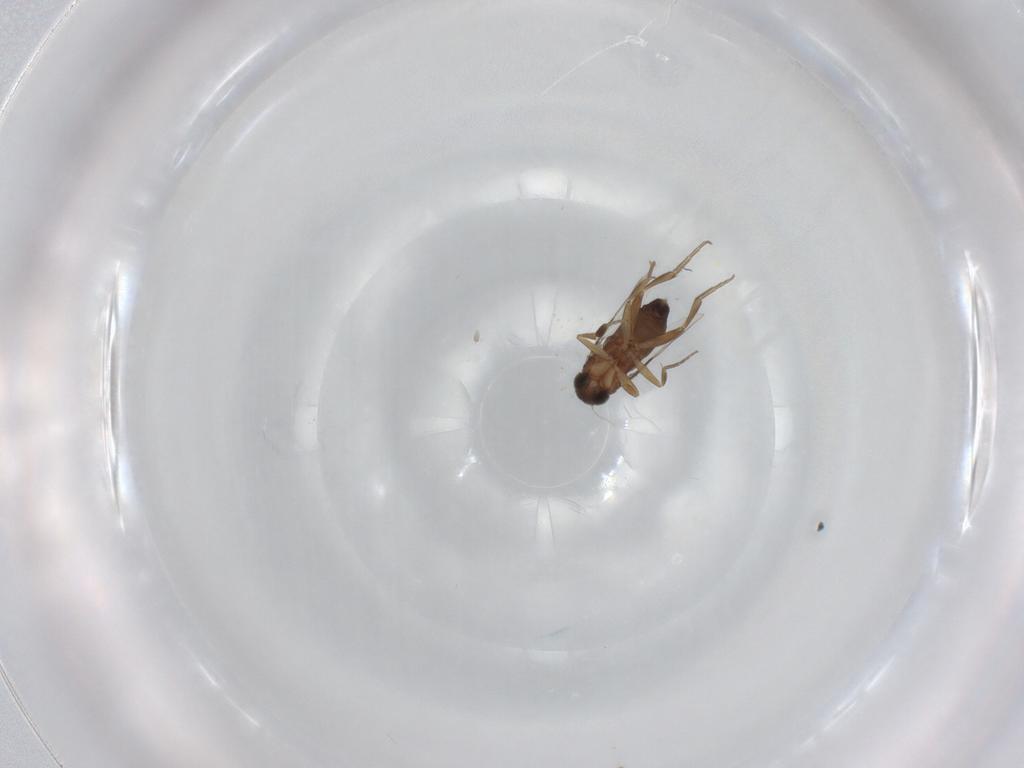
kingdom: Animalia
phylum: Arthropoda
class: Insecta
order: Diptera
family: Phoridae
